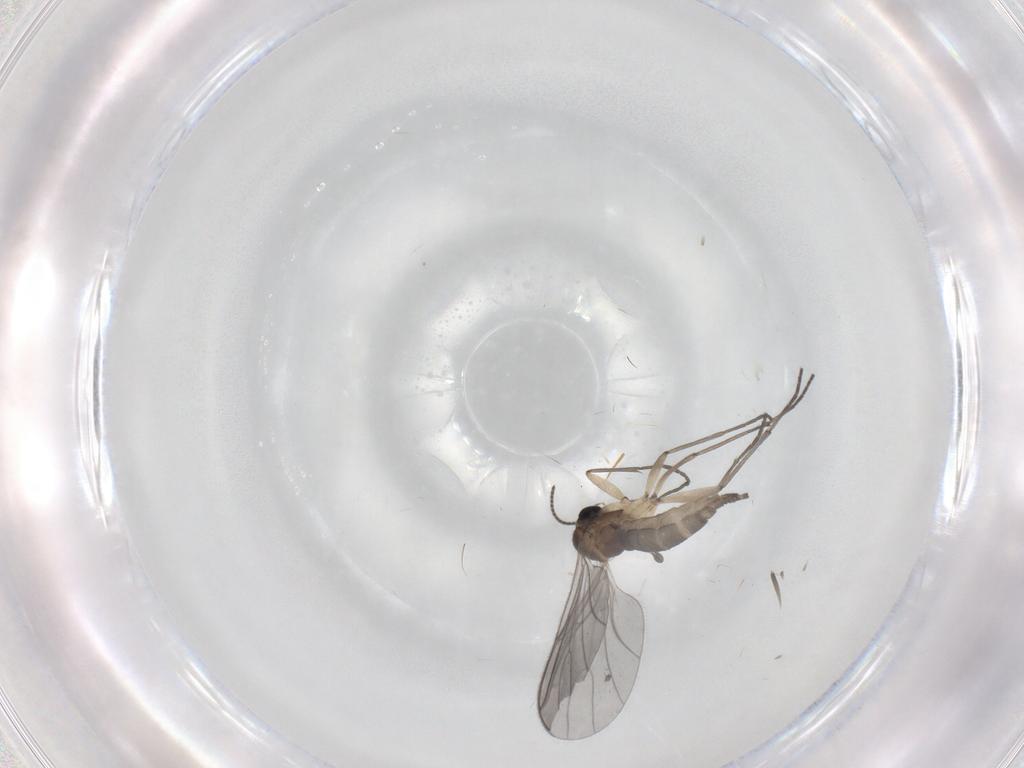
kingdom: Animalia
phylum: Arthropoda
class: Insecta
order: Diptera
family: Sciaridae
